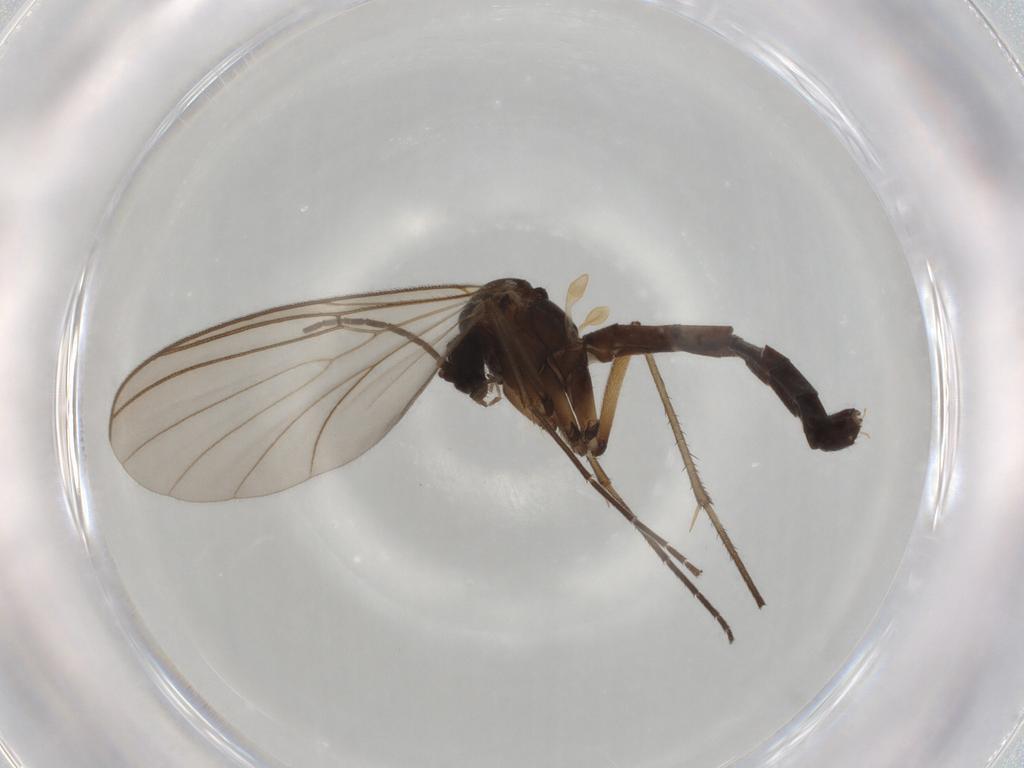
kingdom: Animalia
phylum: Arthropoda
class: Insecta
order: Diptera
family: Mycetophilidae
